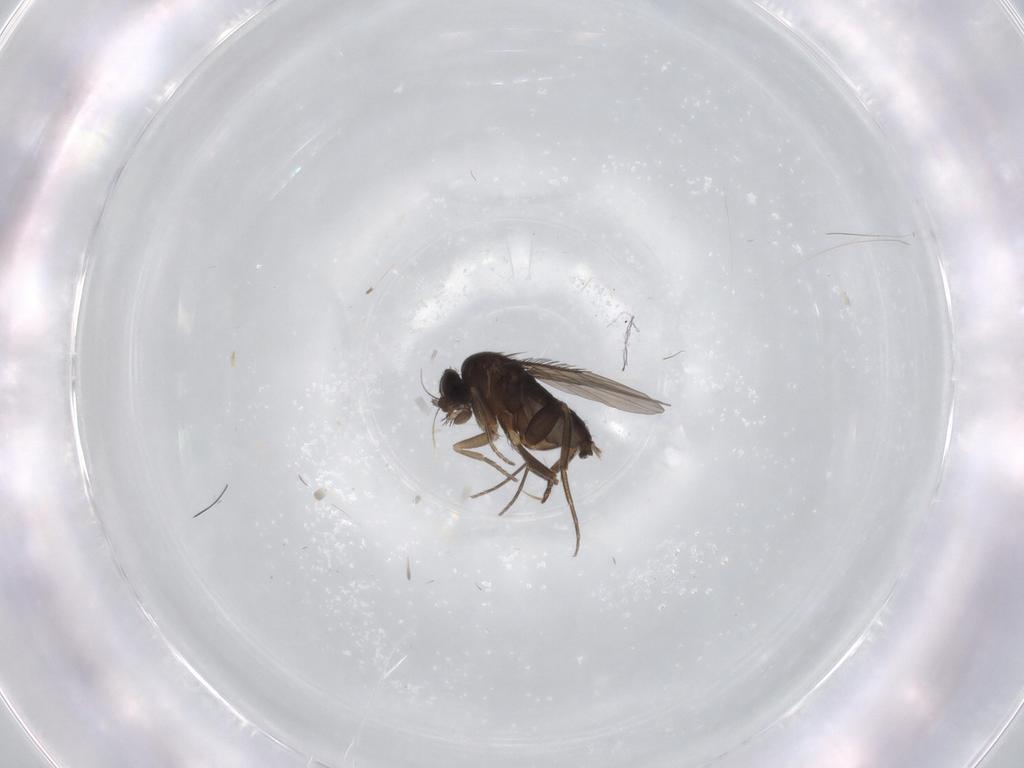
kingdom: Animalia
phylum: Arthropoda
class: Insecta
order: Diptera
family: Phoridae
